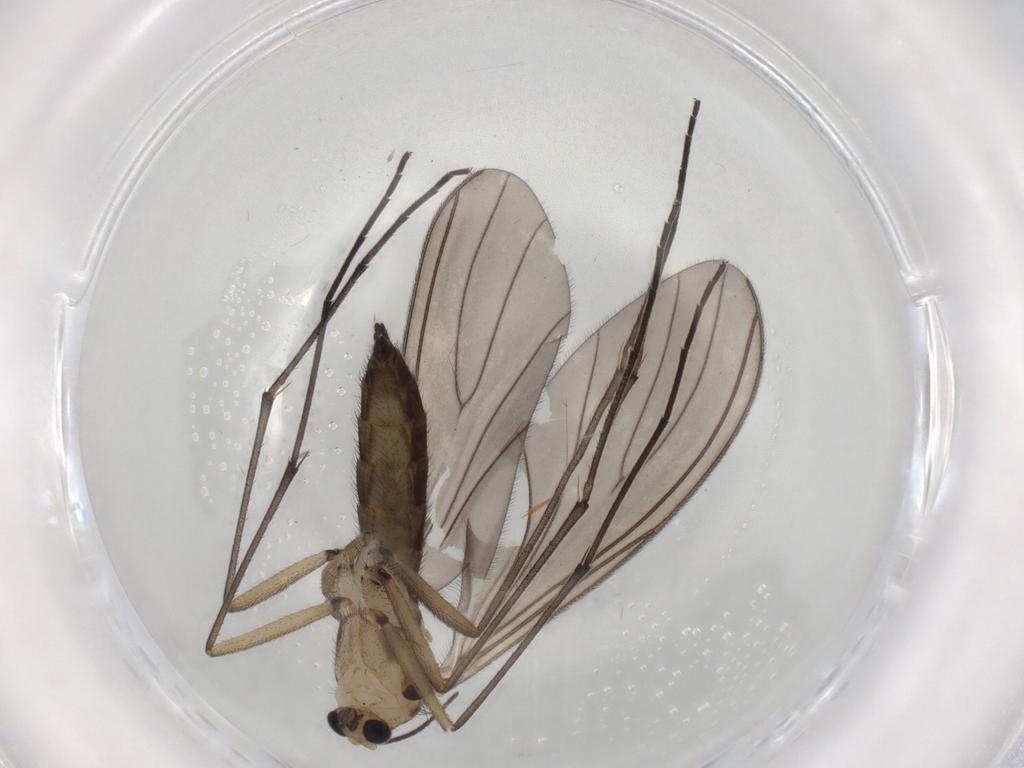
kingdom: Animalia
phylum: Arthropoda
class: Insecta
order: Diptera
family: Sciaridae
